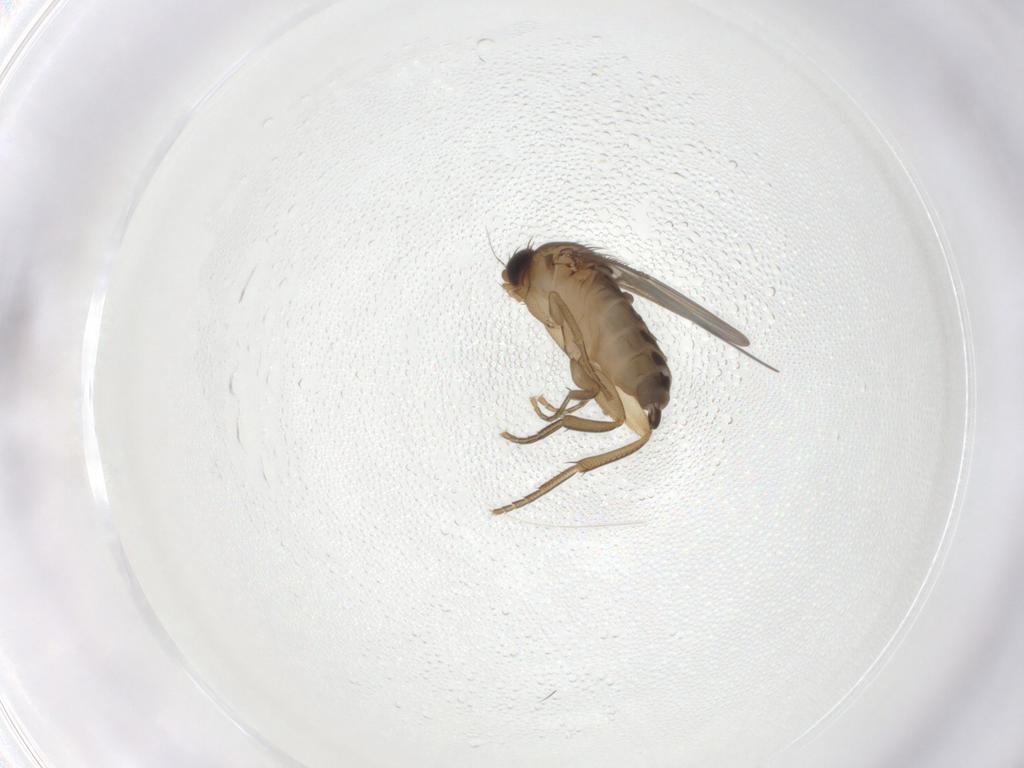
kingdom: Animalia
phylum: Arthropoda
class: Insecta
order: Diptera
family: Phoridae
